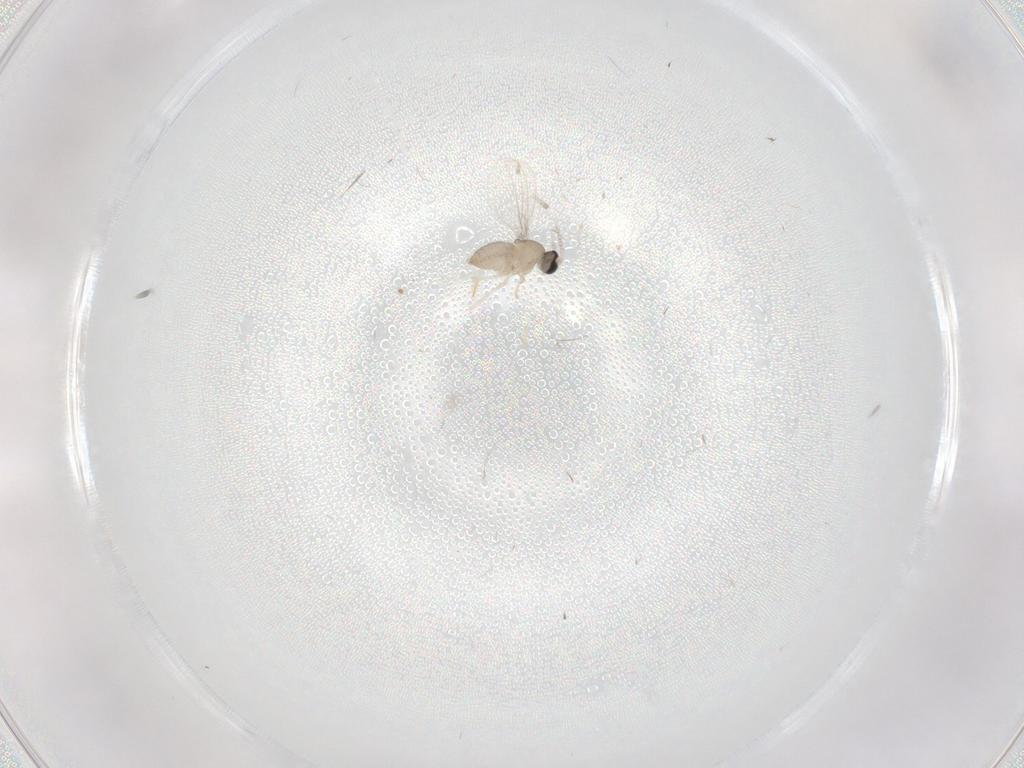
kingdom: Animalia
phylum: Arthropoda
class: Insecta
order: Diptera
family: Cecidomyiidae
